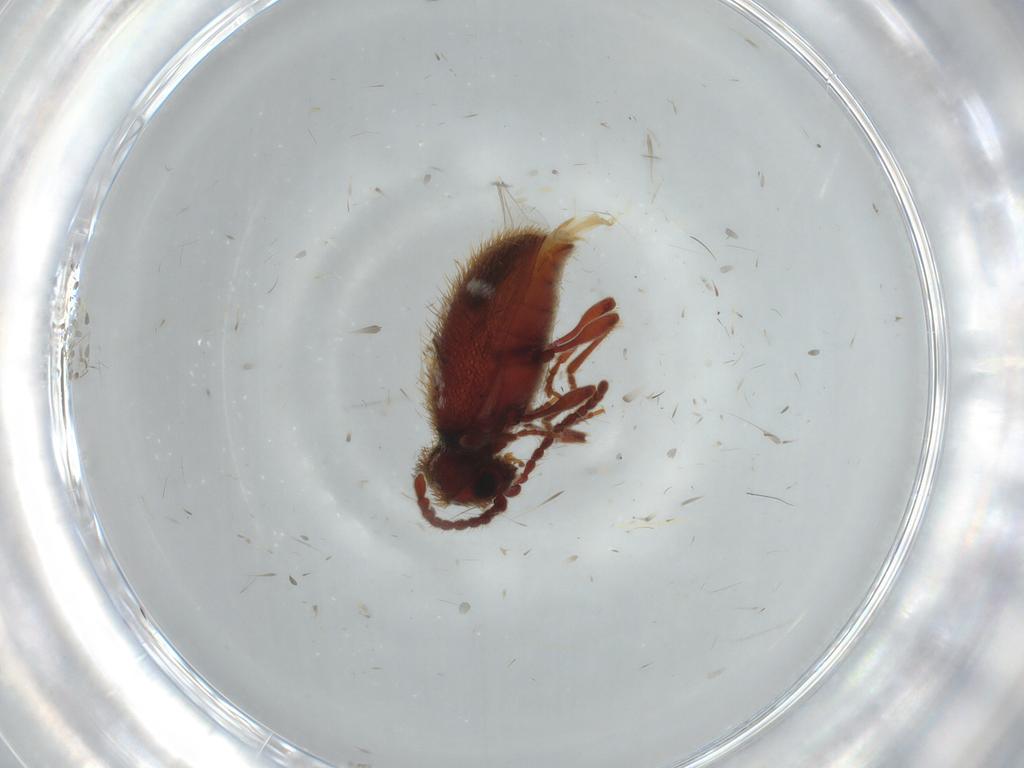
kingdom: Animalia
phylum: Arthropoda
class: Insecta
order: Coleoptera
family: Ptinidae
